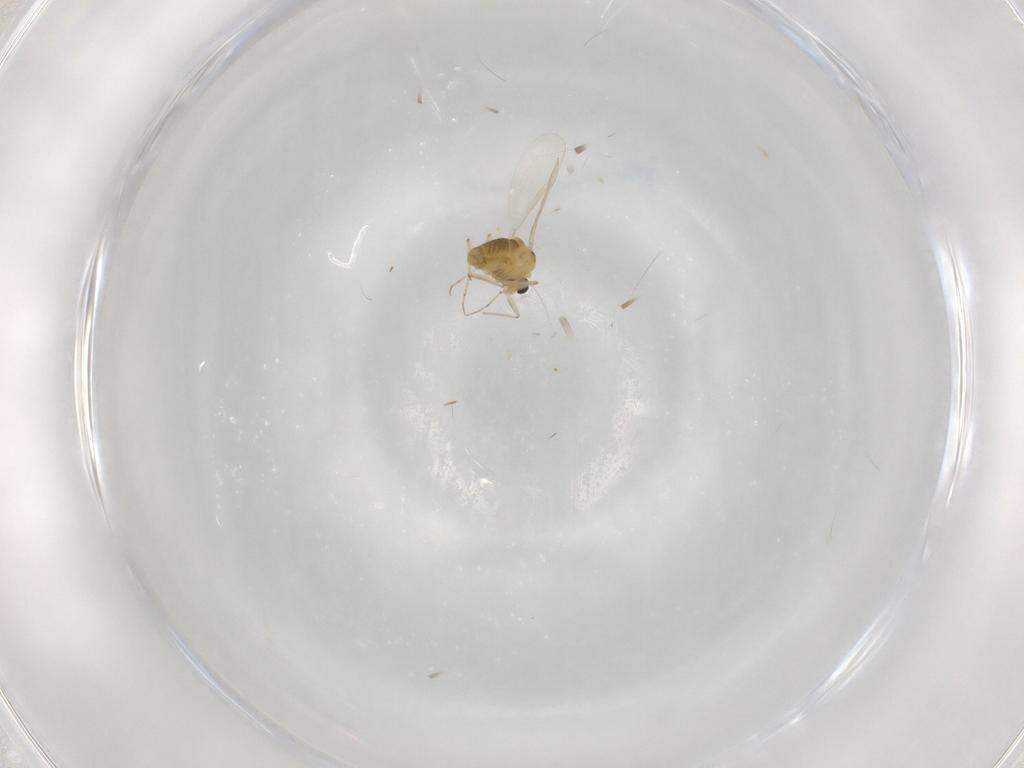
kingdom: Animalia
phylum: Arthropoda
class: Insecta
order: Diptera
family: Chironomidae
